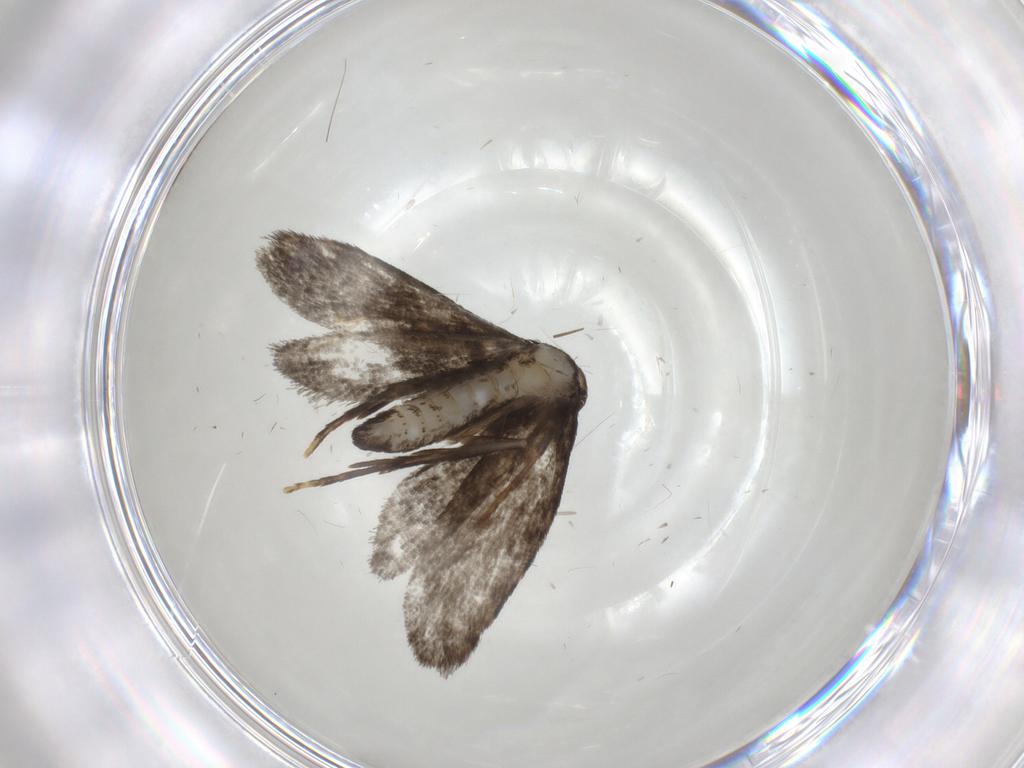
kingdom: Animalia
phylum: Arthropoda
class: Insecta
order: Lepidoptera
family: Psychidae
